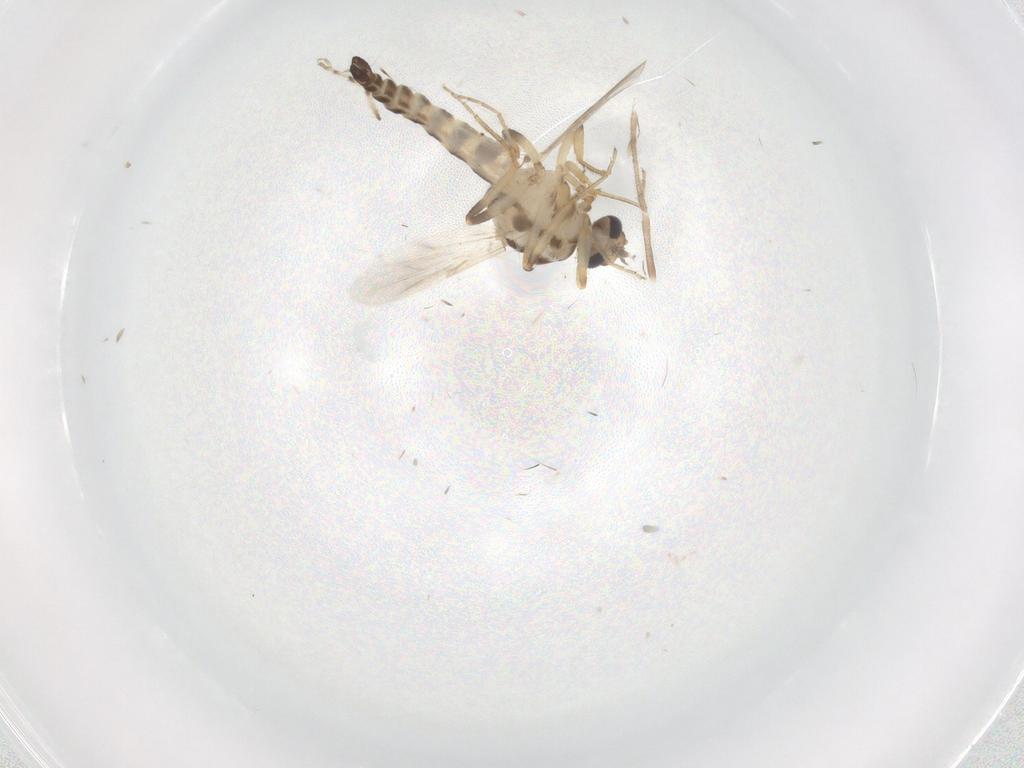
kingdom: Animalia
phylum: Arthropoda
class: Insecta
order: Diptera
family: Ceratopogonidae
